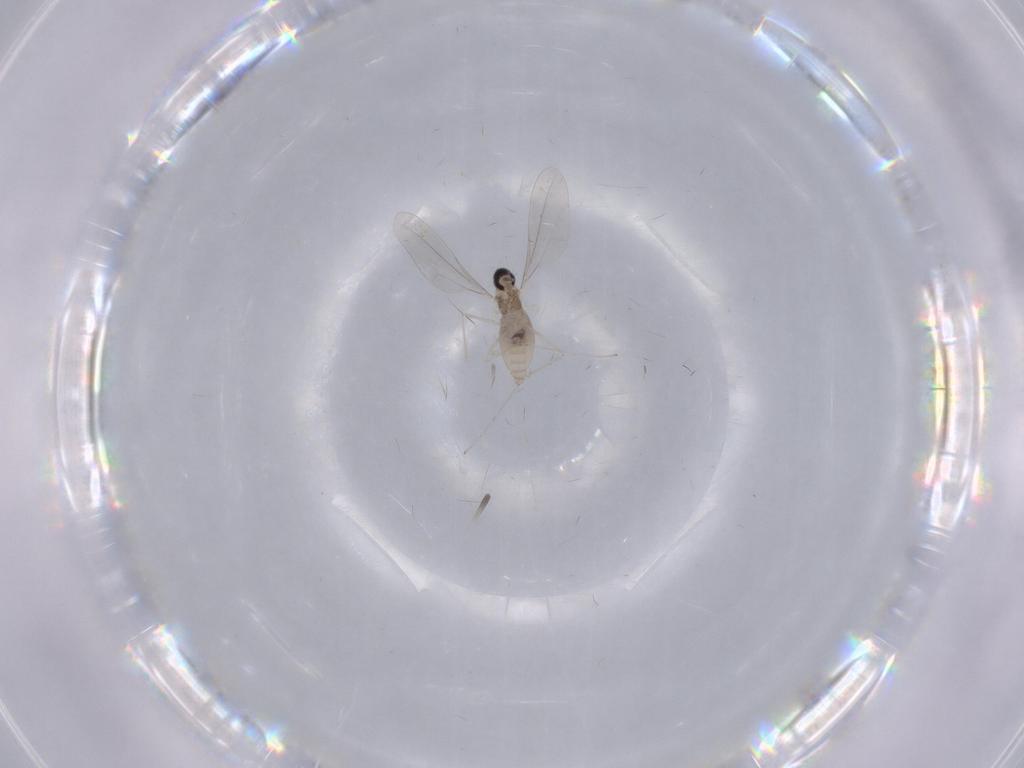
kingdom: Animalia
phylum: Arthropoda
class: Insecta
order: Diptera
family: Cecidomyiidae
